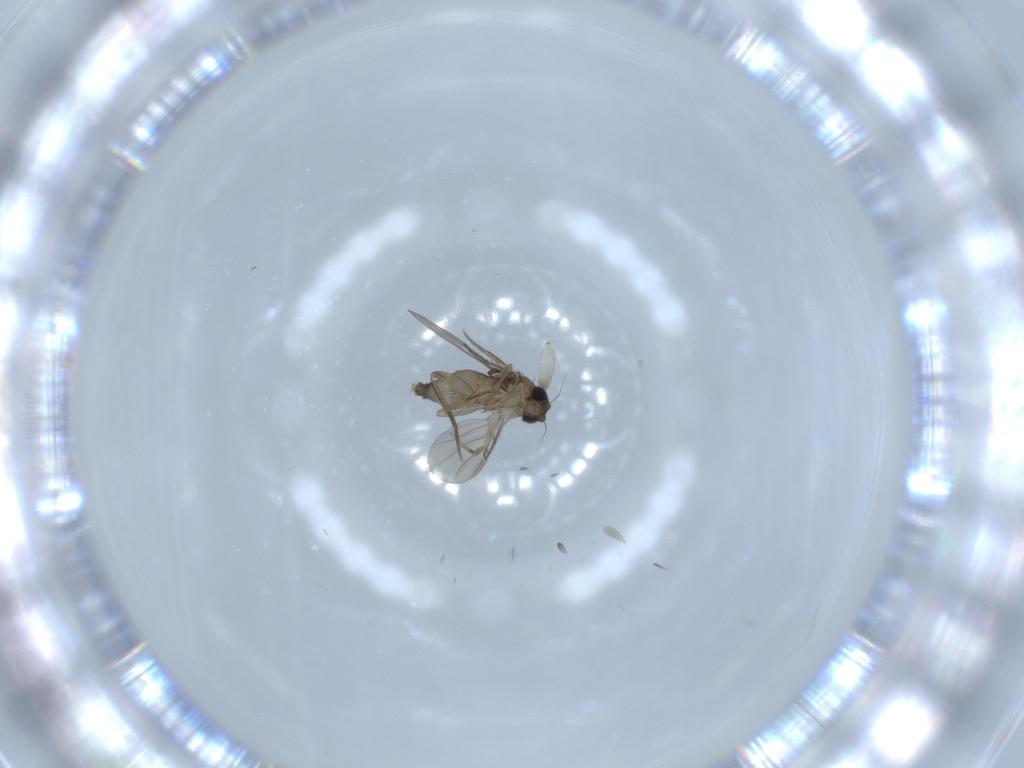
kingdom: Animalia
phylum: Arthropoda
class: Insecta
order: Diptera
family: Phoridae
